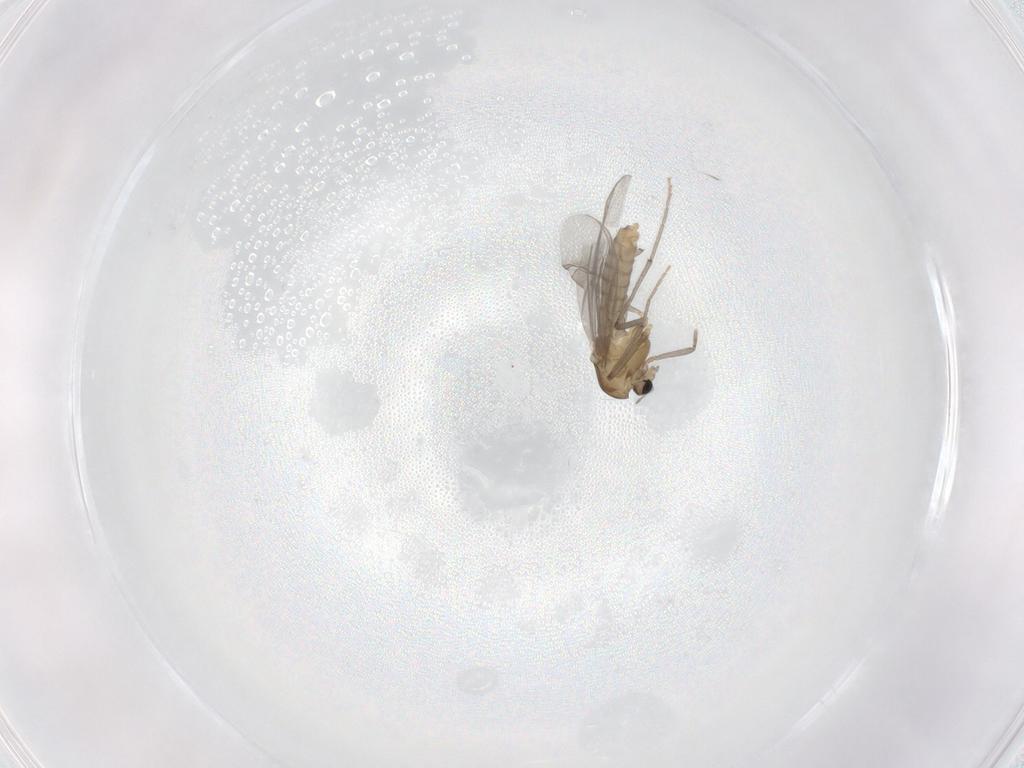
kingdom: Animalia
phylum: Arthropoda
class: Insecta
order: Diptera
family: Chironomidae
